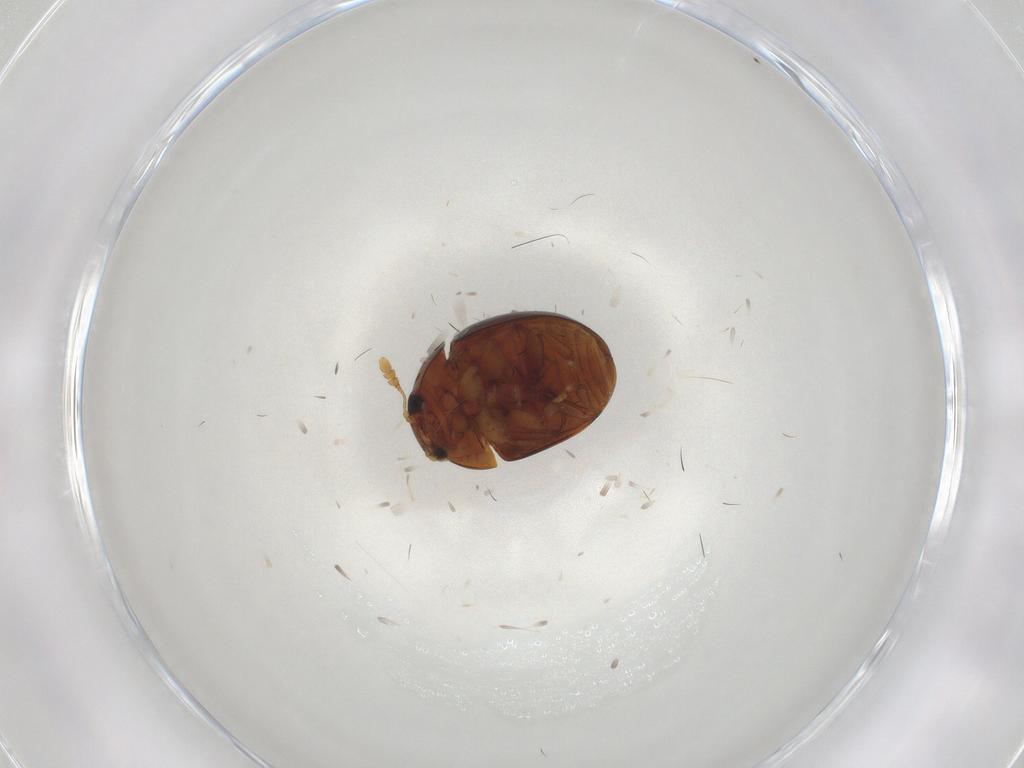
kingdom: Animalia
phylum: Arthropoda
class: Insecta
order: Coleoptera
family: Phalacridae
